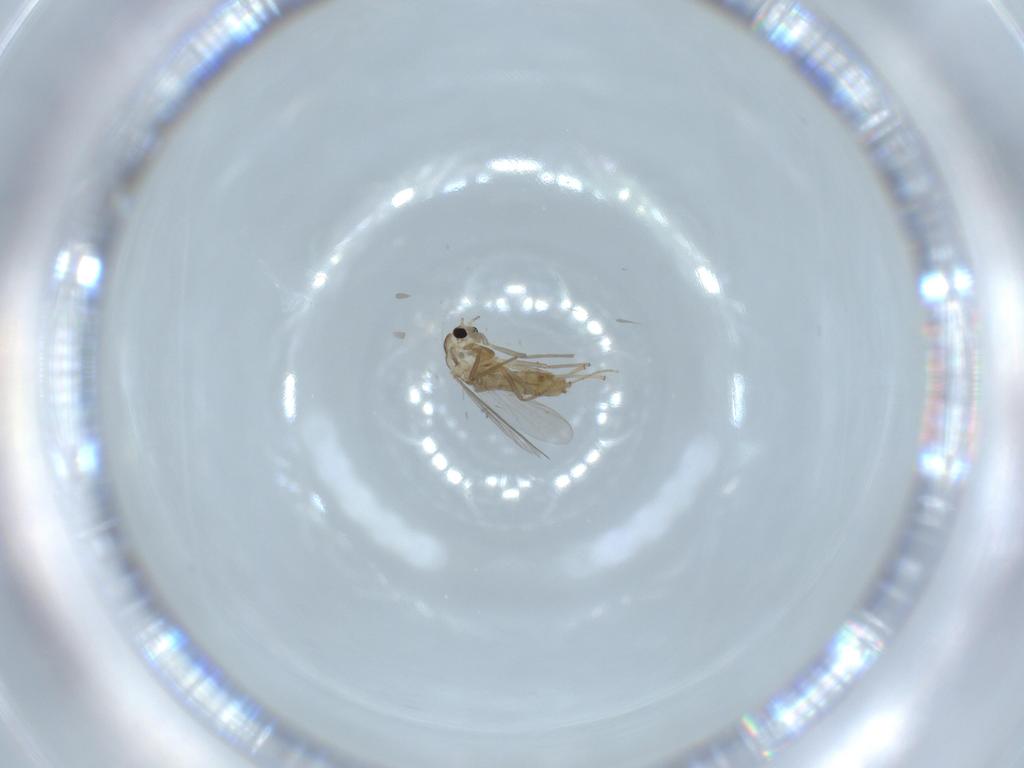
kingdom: Animalia
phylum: Arthropoda
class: Insecta
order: Diptera
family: Chironomidae
